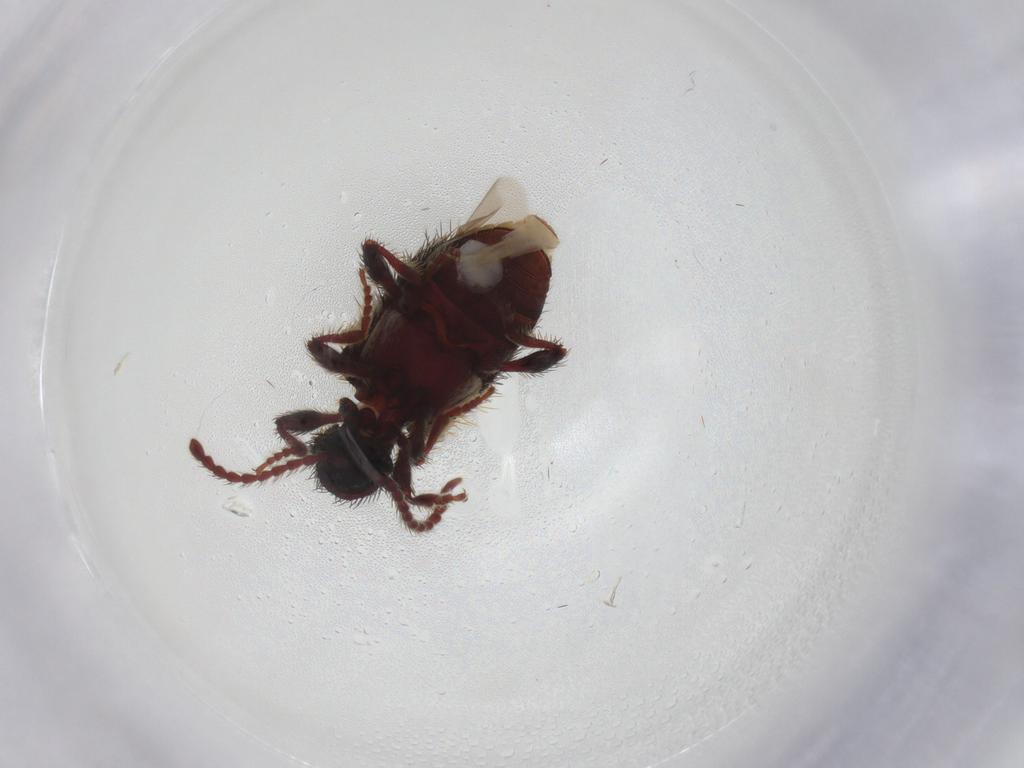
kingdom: Animalia
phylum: Arthropoda
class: Insecta
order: Coleoptera
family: Ptinidae
